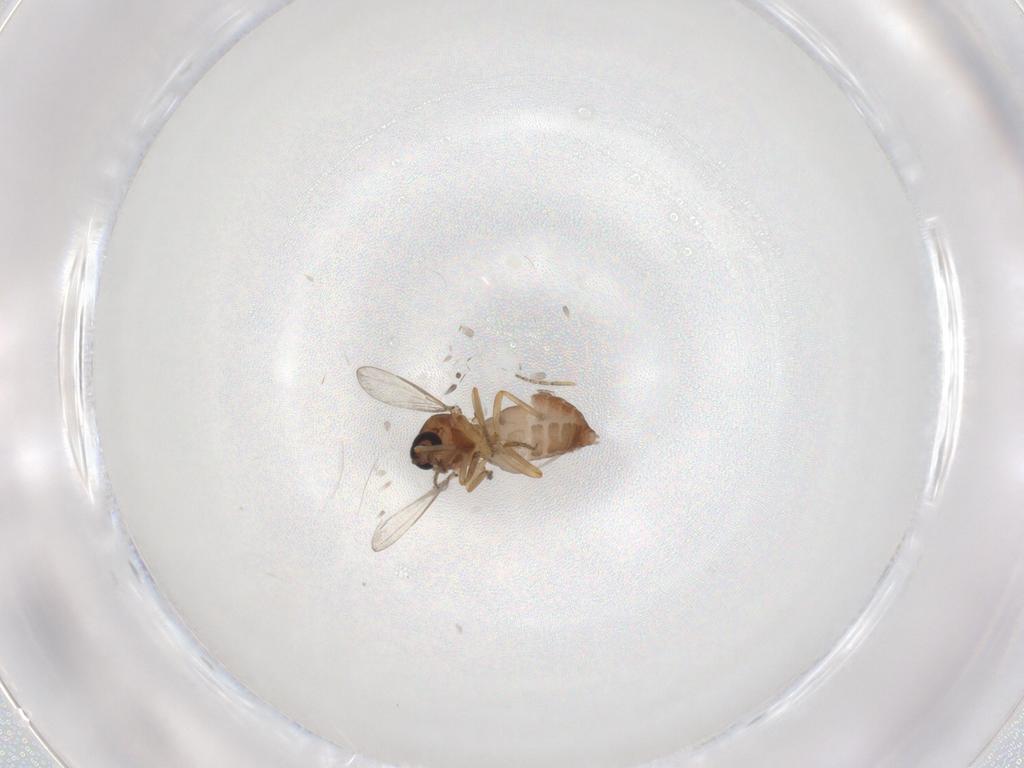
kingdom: Animalia
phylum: Arthropoda
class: Insecta
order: Diptera
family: Ceratopogonidae
